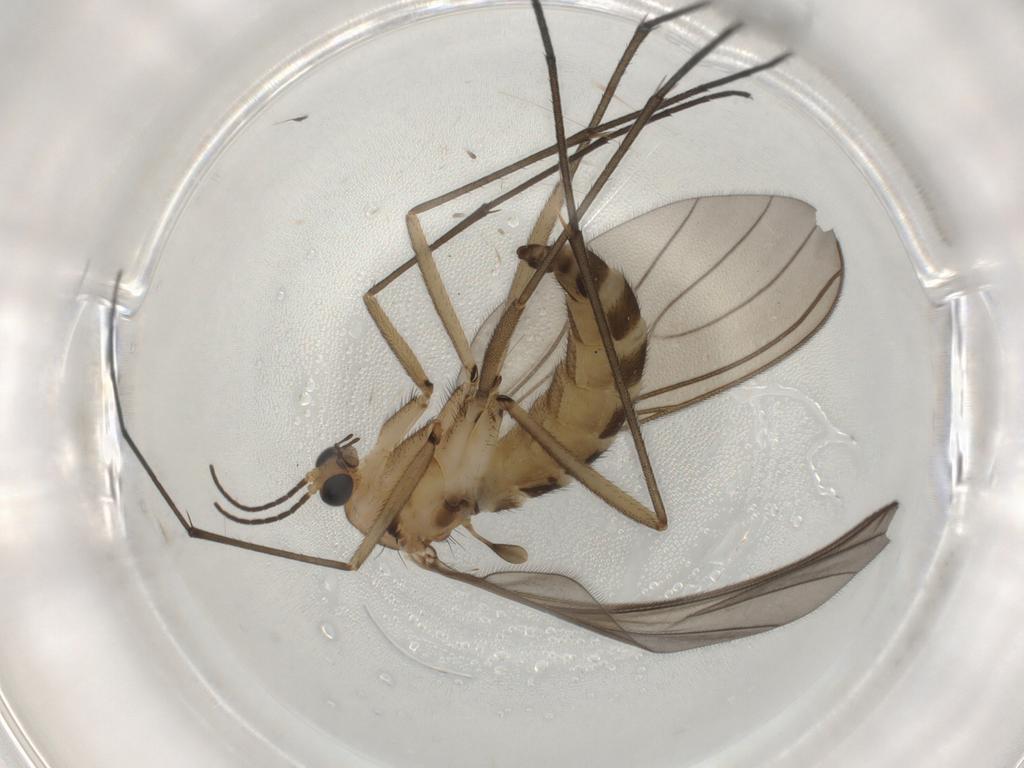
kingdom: Animalia
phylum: Arthropoda
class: Insecta
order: Diptera
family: Sciaridae
